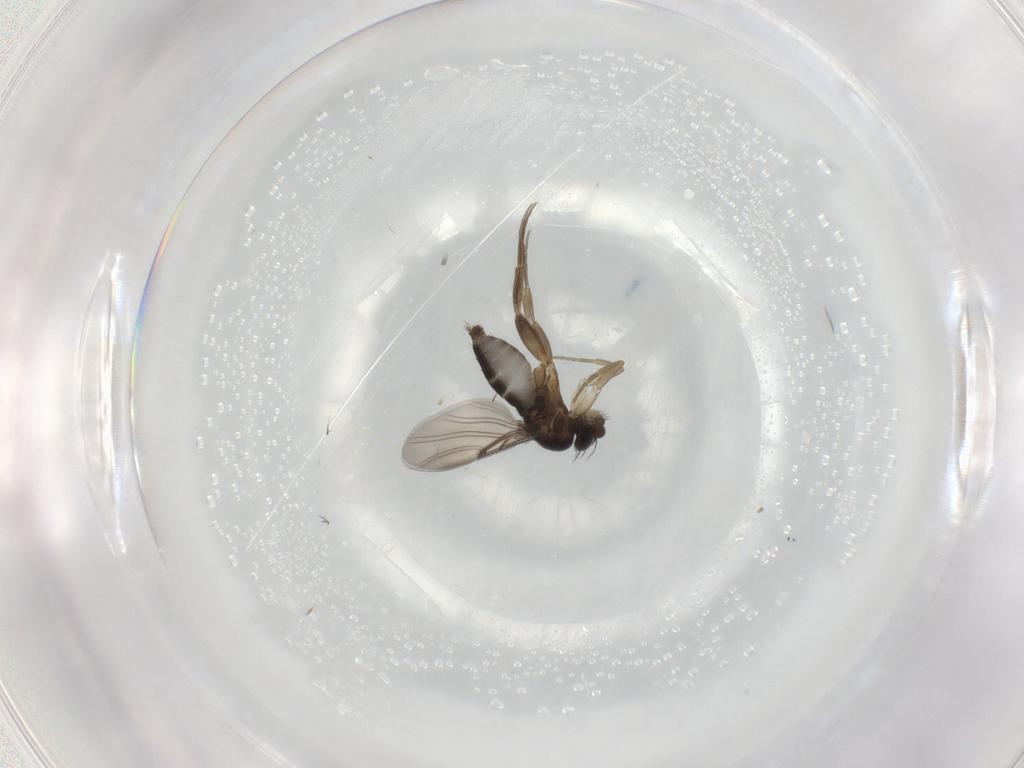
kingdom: Animalia
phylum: Arthropoda
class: Insecta
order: Diptera
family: Phoridae
